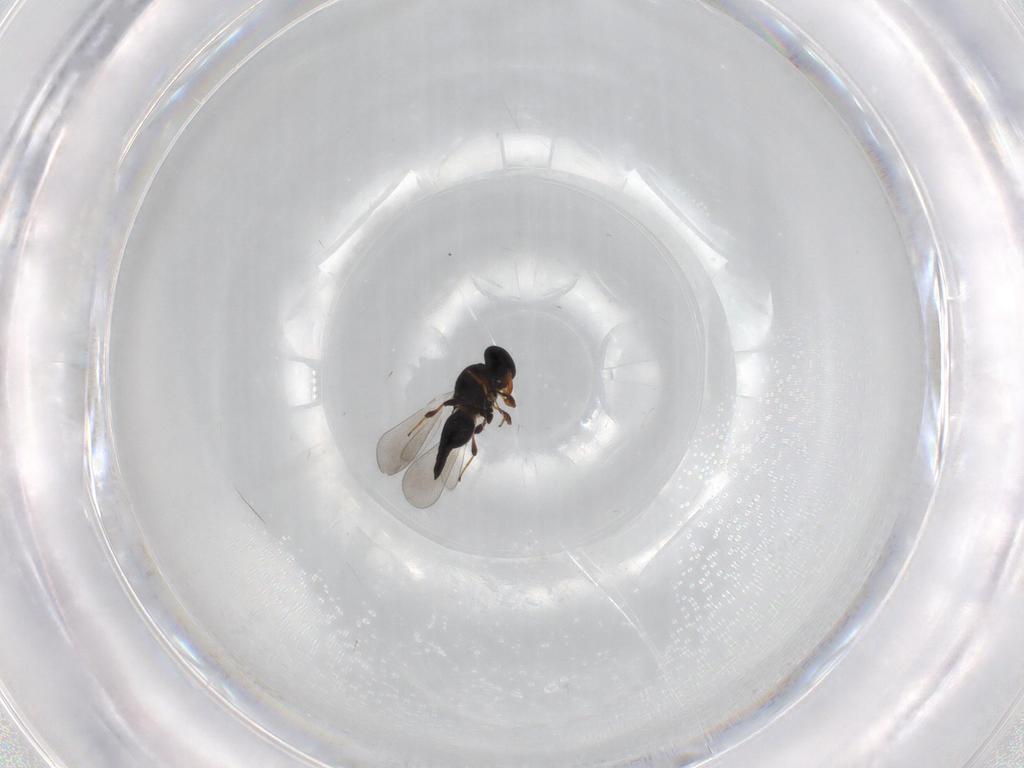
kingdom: Animalia
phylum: Arthropoda
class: Insecta
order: Hymenoptera
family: Platygastridae
